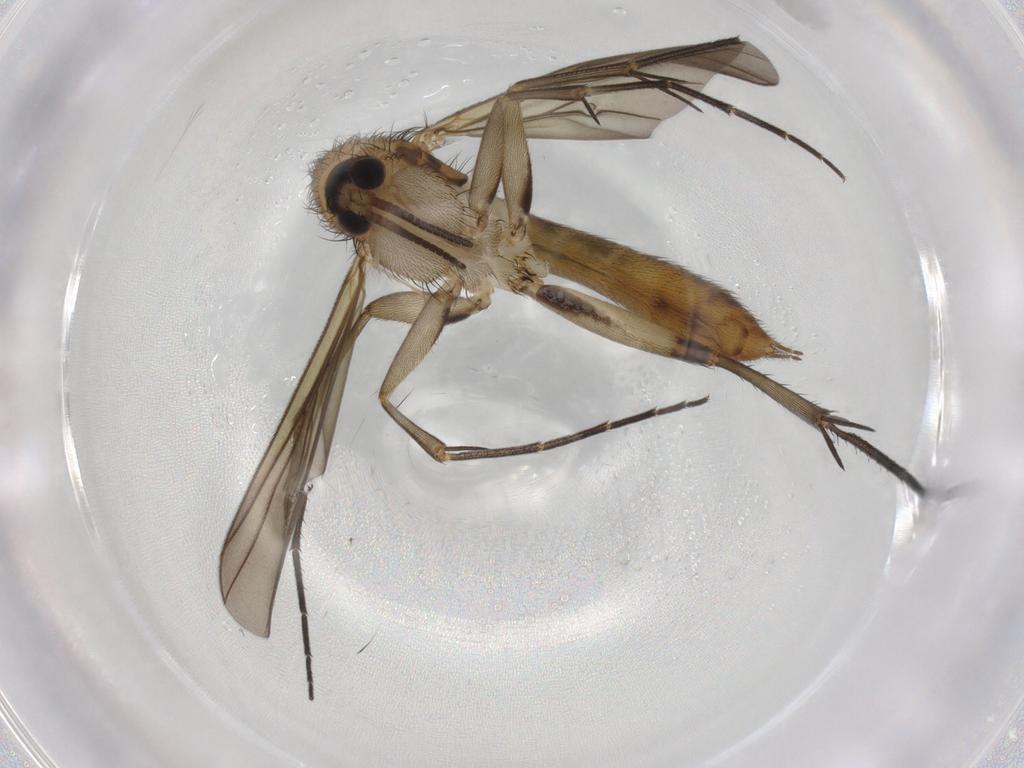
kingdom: Animalia
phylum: Arthropoda
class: Insecta
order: Diptera
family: Mycetophilidae
